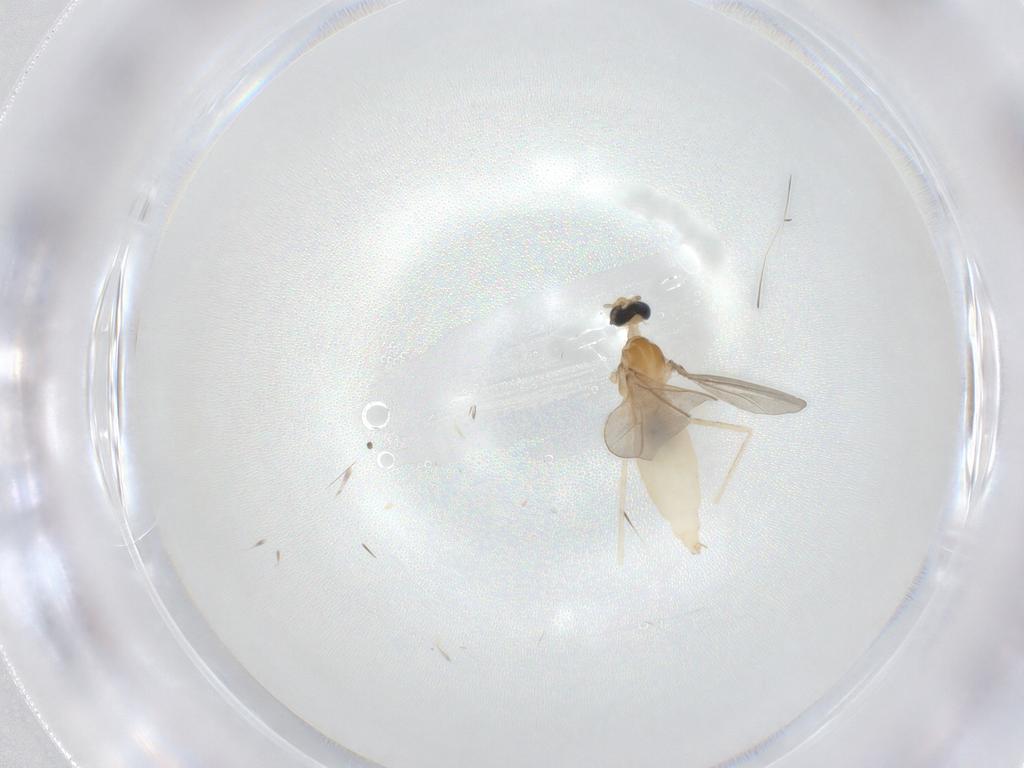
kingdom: Animalia
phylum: Arthropoda
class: Insecta
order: Diptera
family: Cecidomyiidae
